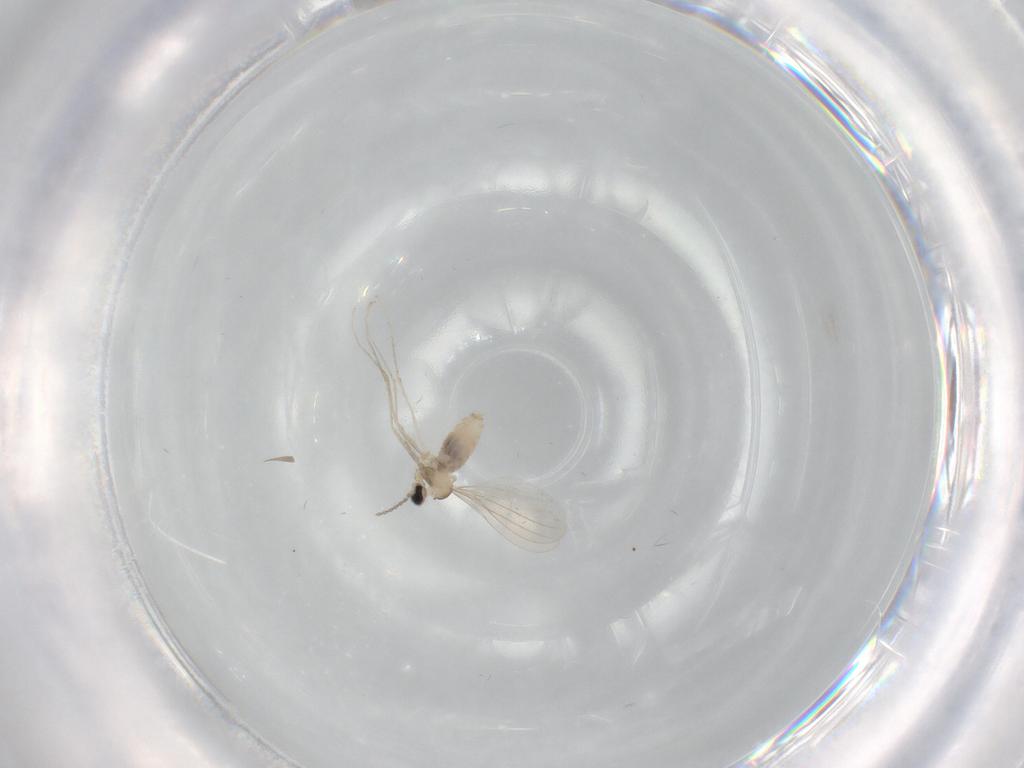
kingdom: Animalia
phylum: Arthropoda
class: Insecta
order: Diptera
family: Cecidomyiidae
